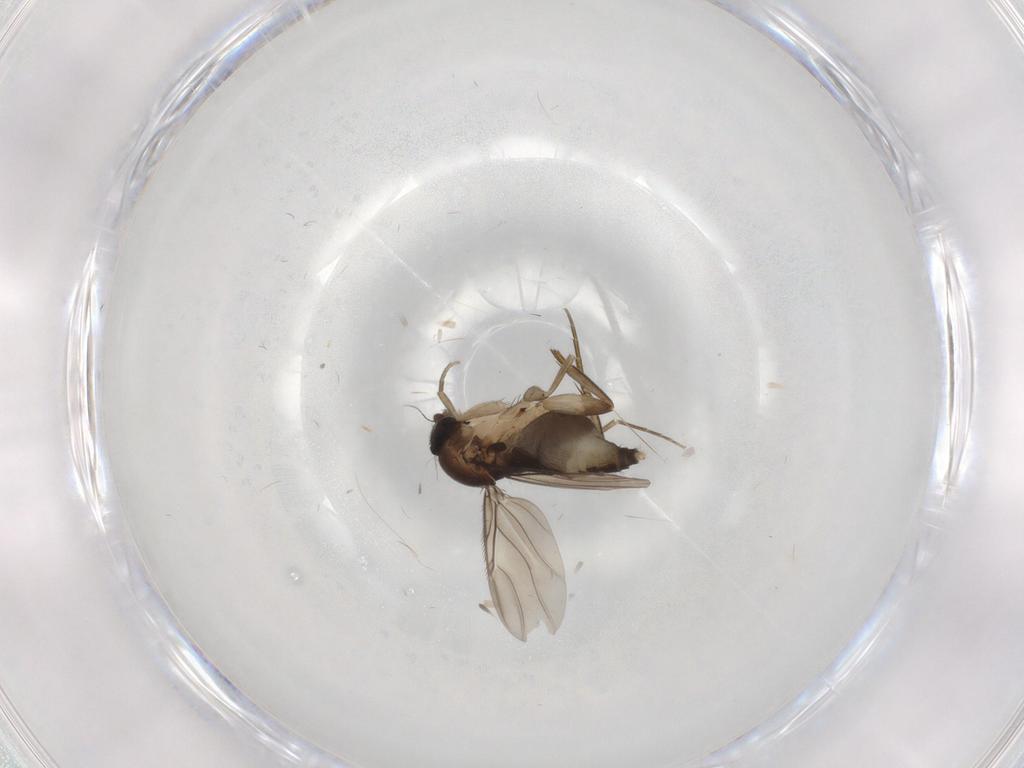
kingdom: Animalia
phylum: Arthropoda
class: Insecta
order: Diptera
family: Phoridae
